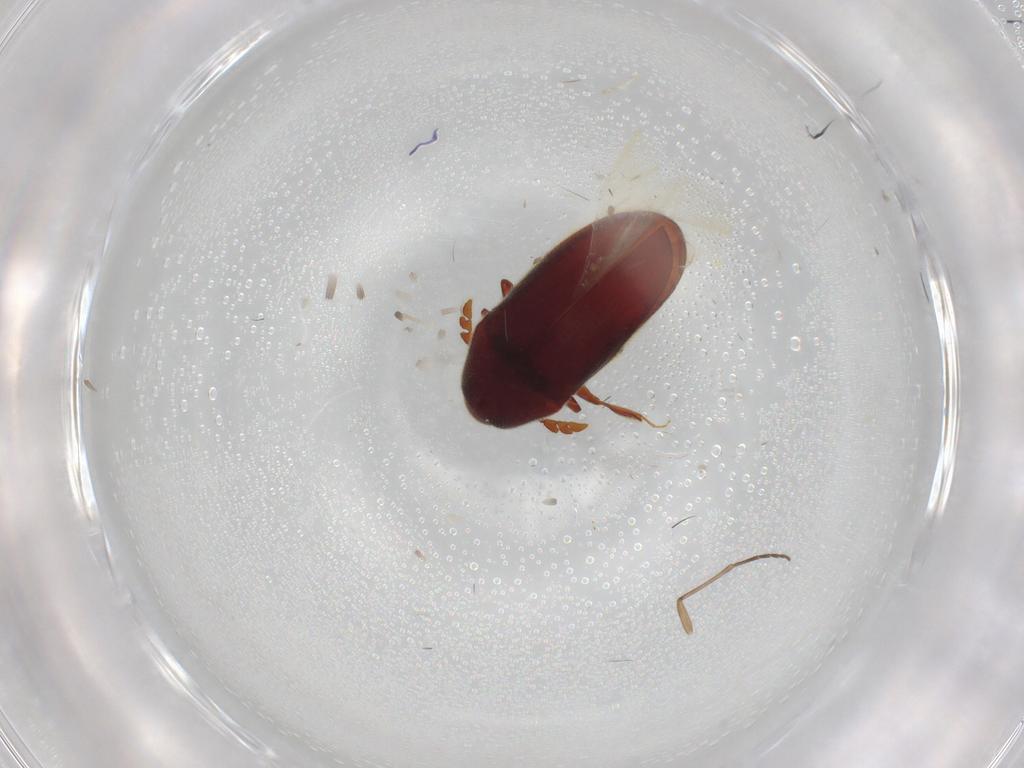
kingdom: Animalia
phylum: Arthropoda
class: Insecta
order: Coleoptera
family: Throscidae
